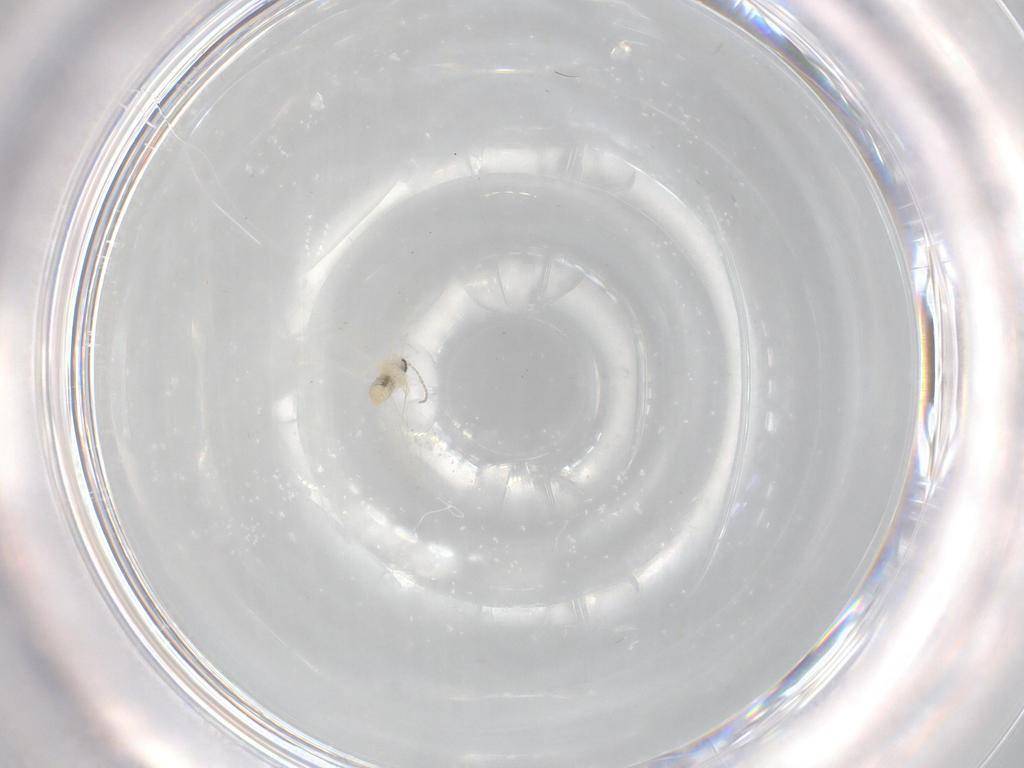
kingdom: Animalia
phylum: Arthropoda
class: Insecta
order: Diptera
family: Cecidomyiidae
